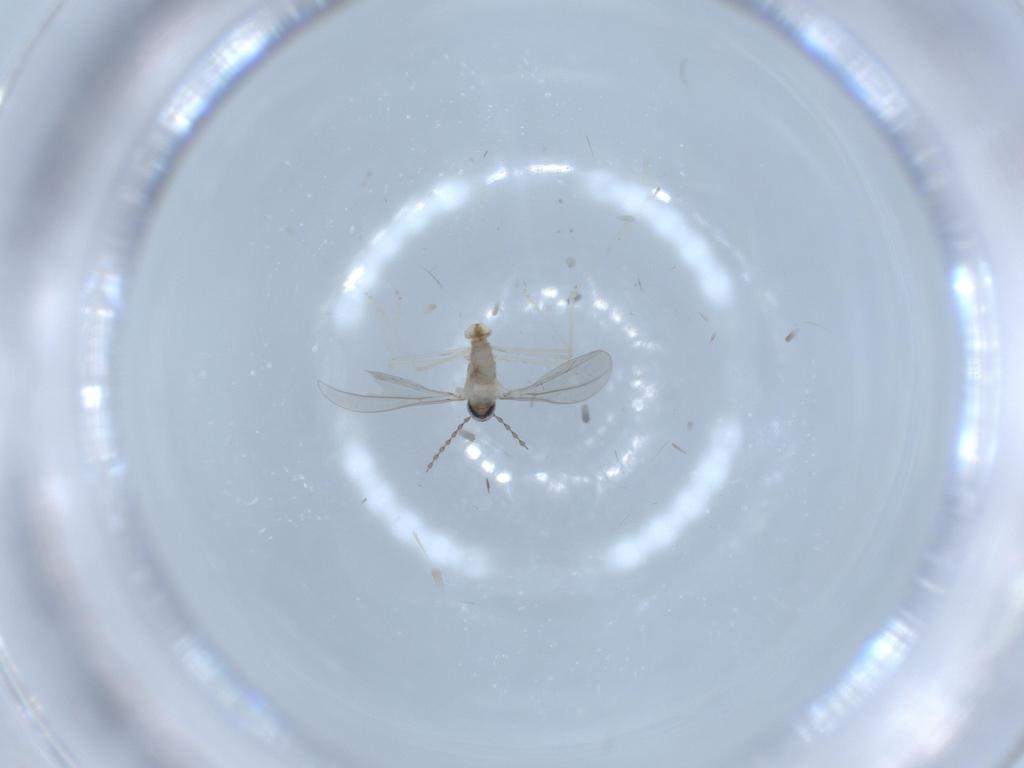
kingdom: Animalia
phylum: Arthropoda
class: Insecta
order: Diptera
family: Cecidomyiidae
